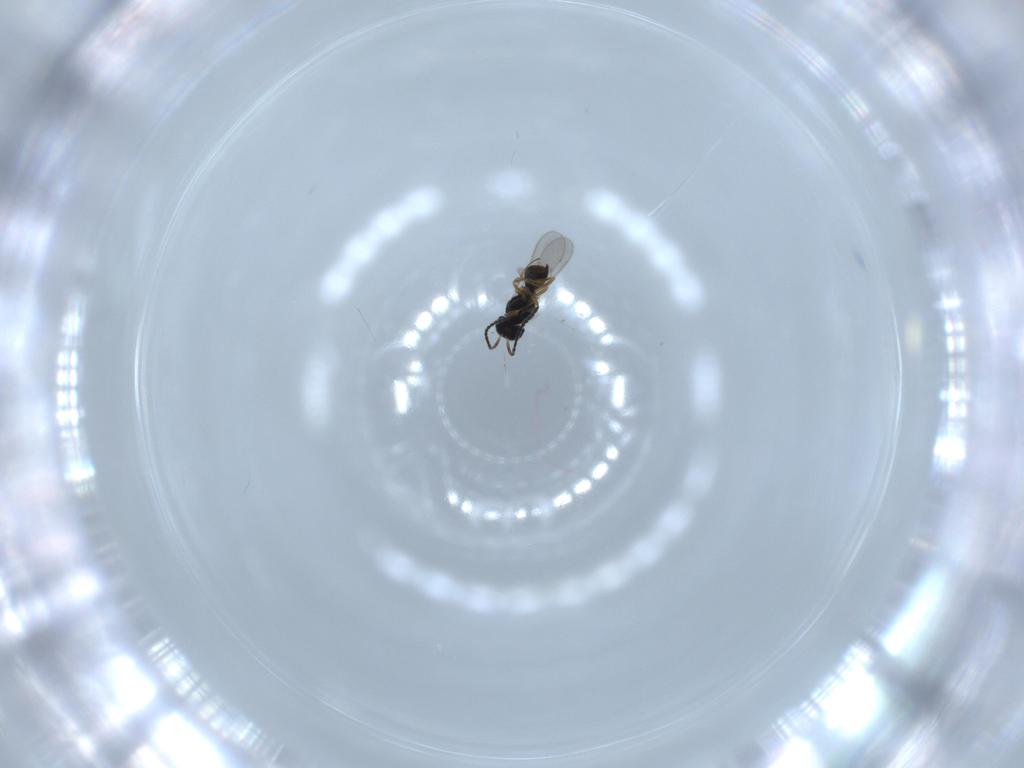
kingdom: Animalia
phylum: Arthropoda
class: Insecta
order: Hymenoptera
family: Scelionidae
